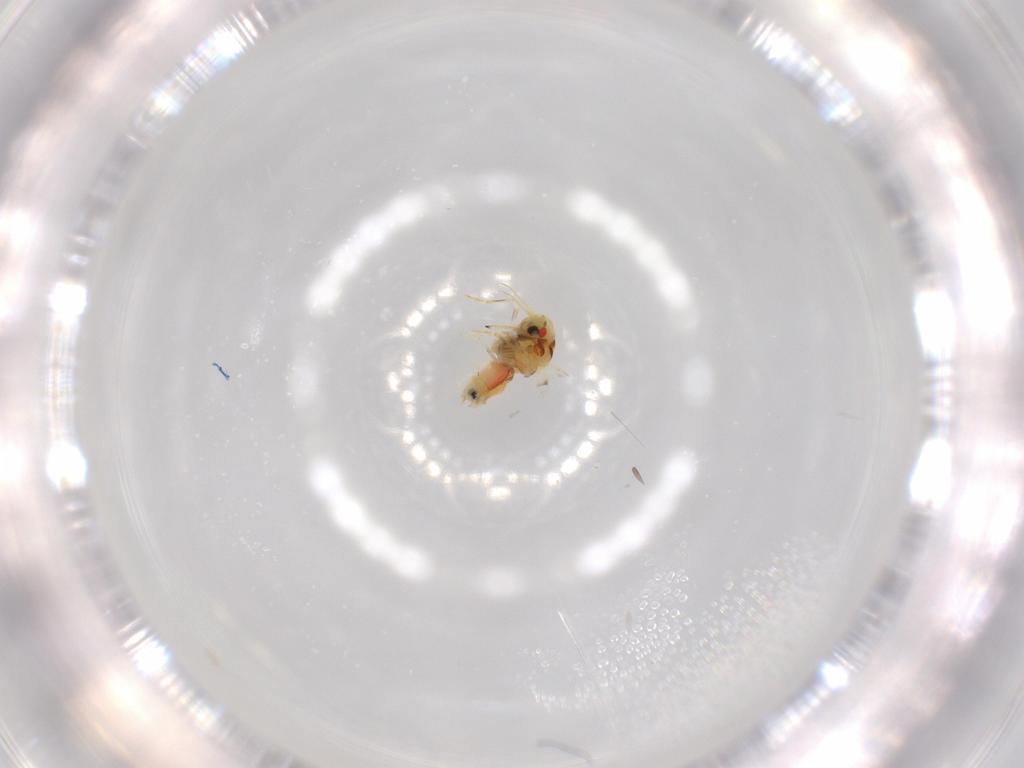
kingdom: Animalia
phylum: Arthropoda
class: Insecta
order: Hemiptera
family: Aleyrodidae
